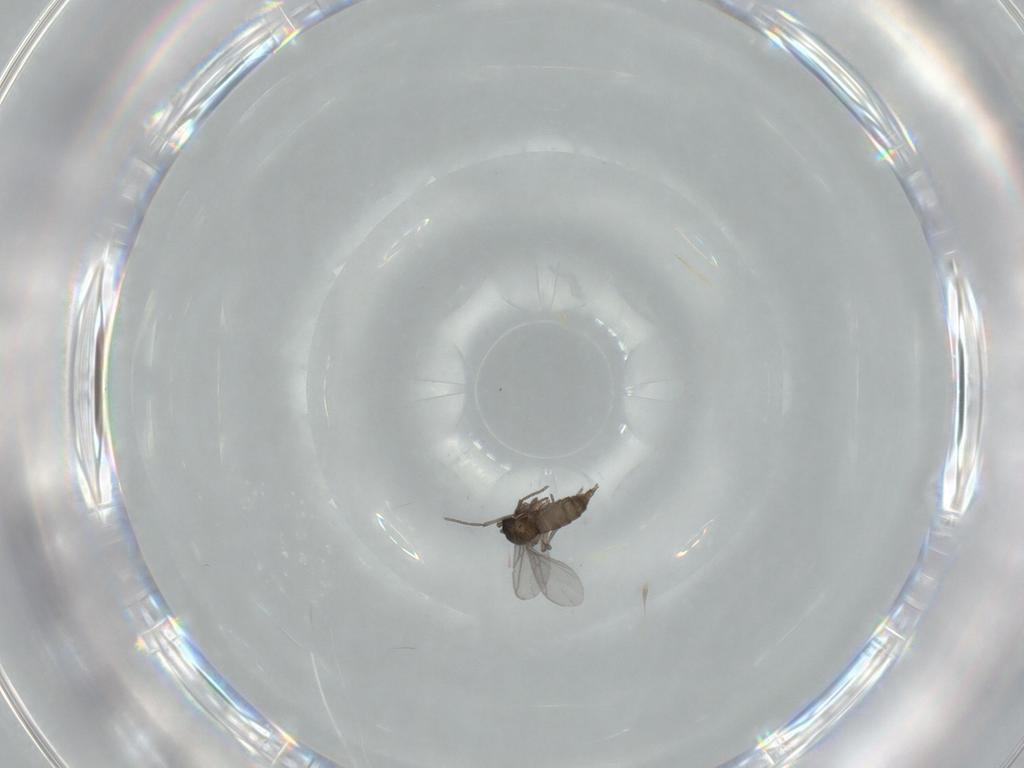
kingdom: Animalia
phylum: Arthropoda
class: Insecta
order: Diptera
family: Sciaridae
